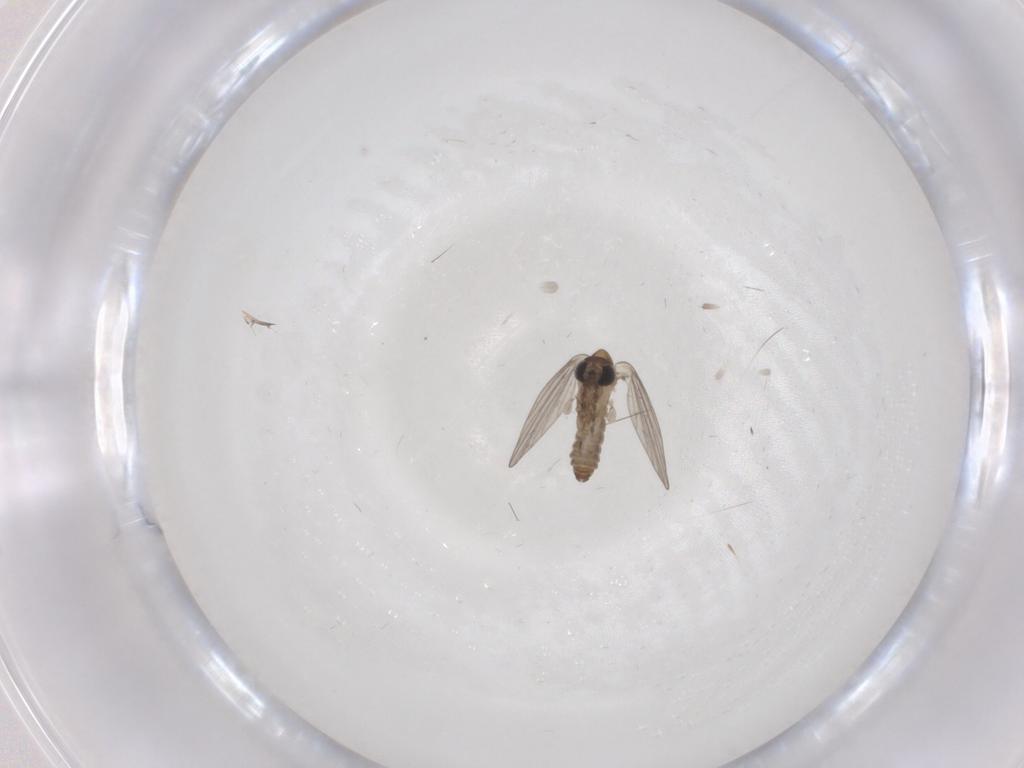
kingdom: Animalia
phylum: Arthropoda
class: Insecta
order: Diptera
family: Psychodidae
